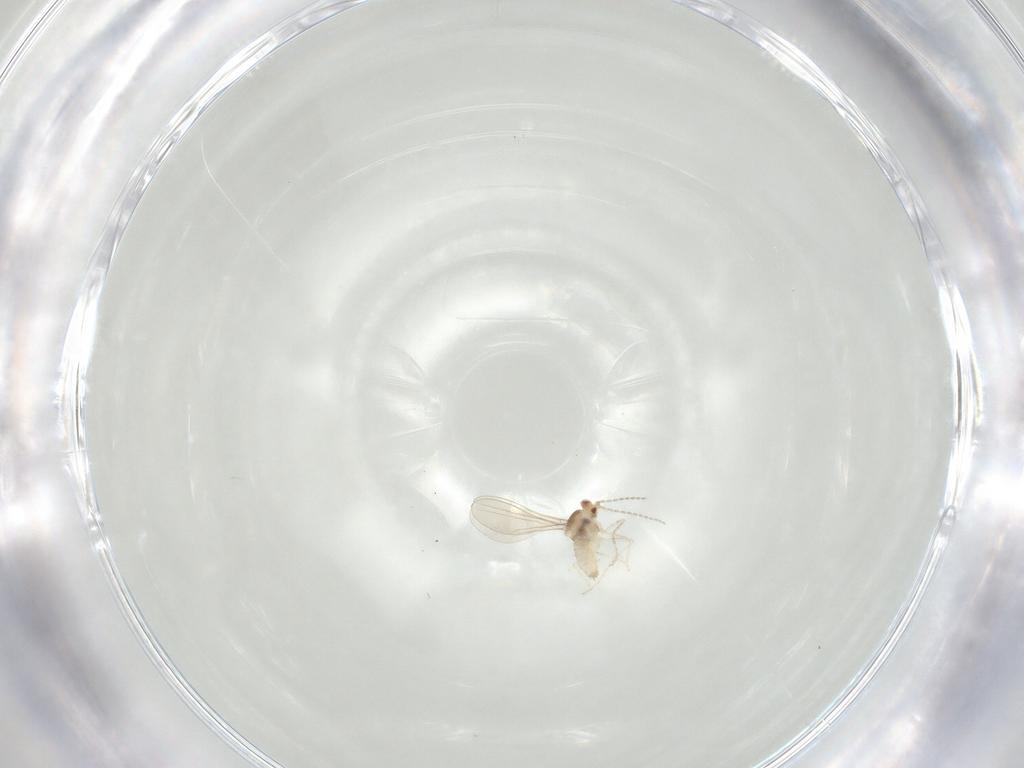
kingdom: Animalia
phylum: Arthropoda
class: Insecta
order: Diptera
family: Cecidomyiidae
